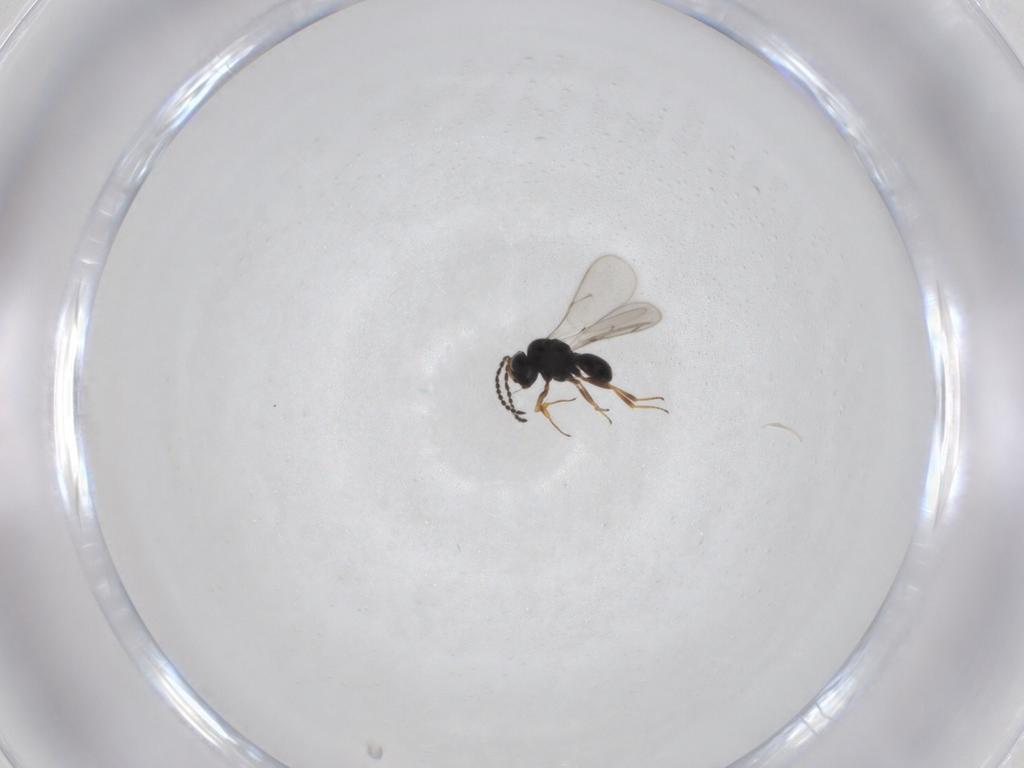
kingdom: Animalia
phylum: Arthropoda
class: Insecta
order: Hymenoptera
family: Scelionidae
